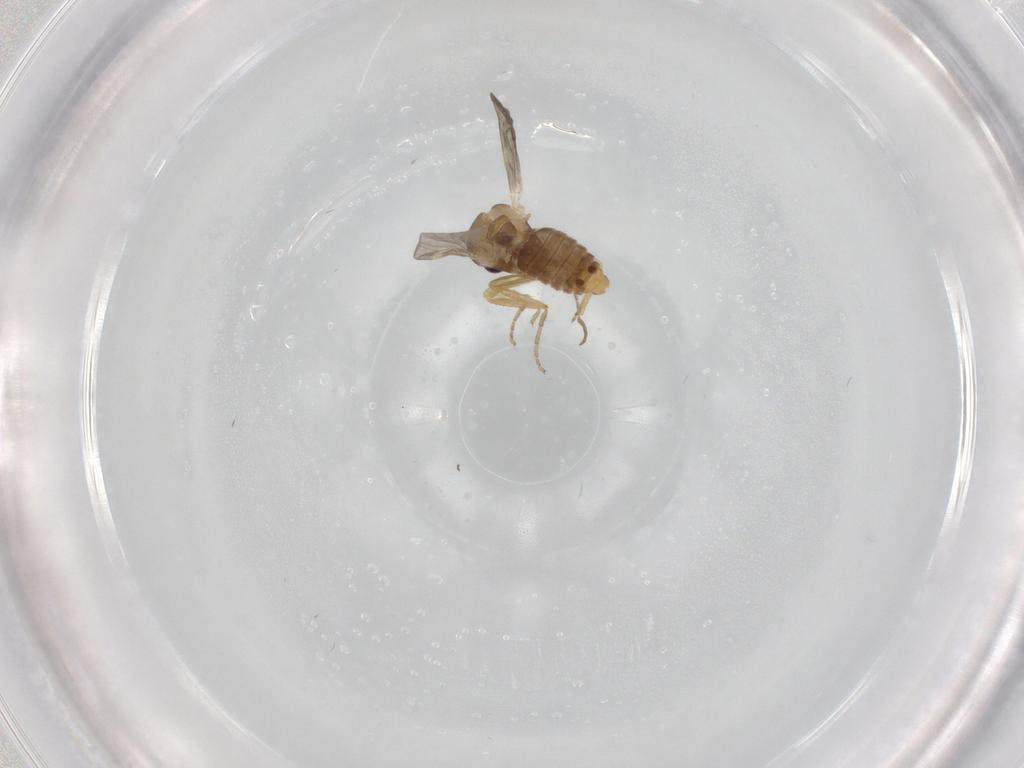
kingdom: Animalia
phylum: Arthropoda
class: Insecta
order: Diptera
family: Ceratopogonidae
